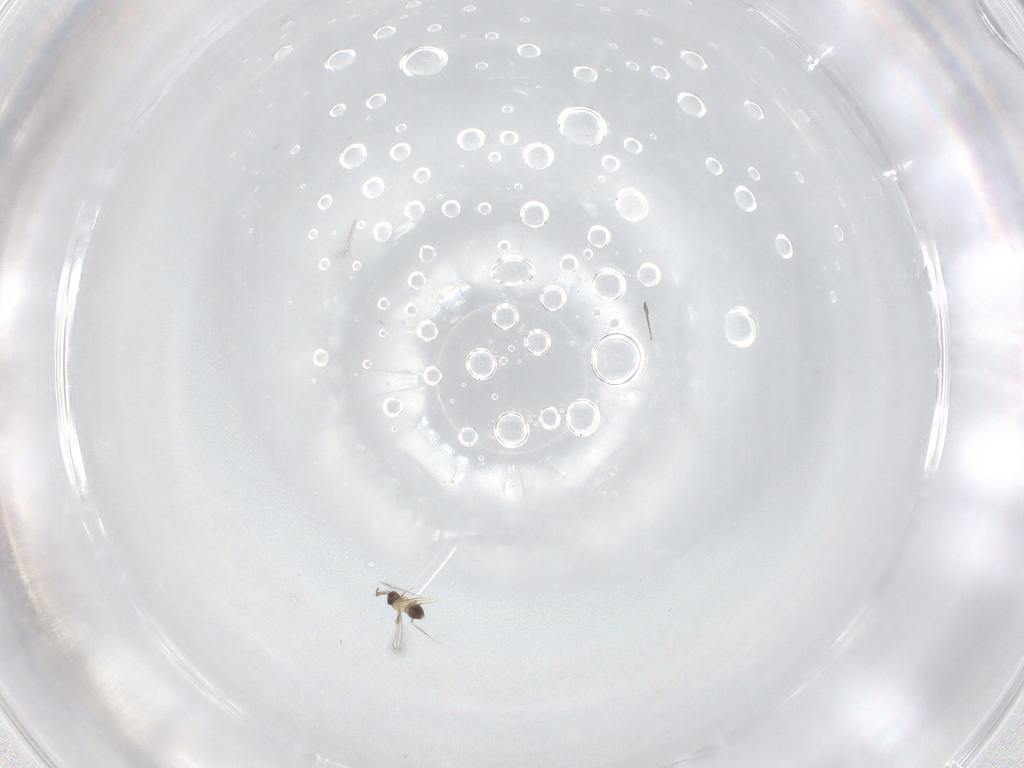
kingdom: Animalia
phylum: Arthropoda
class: Insecta
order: Hymenoptera
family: Mymaridae
